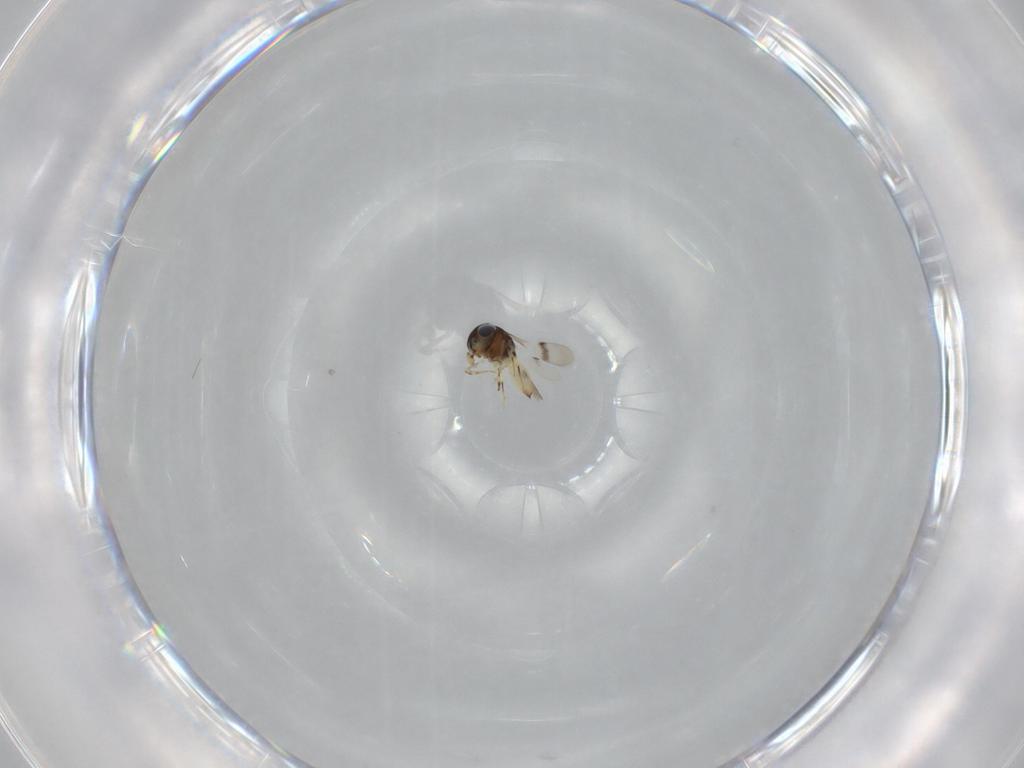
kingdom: Animalia
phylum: Arthropoda
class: Insecta
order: Hymenoptera
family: Scelionidae
